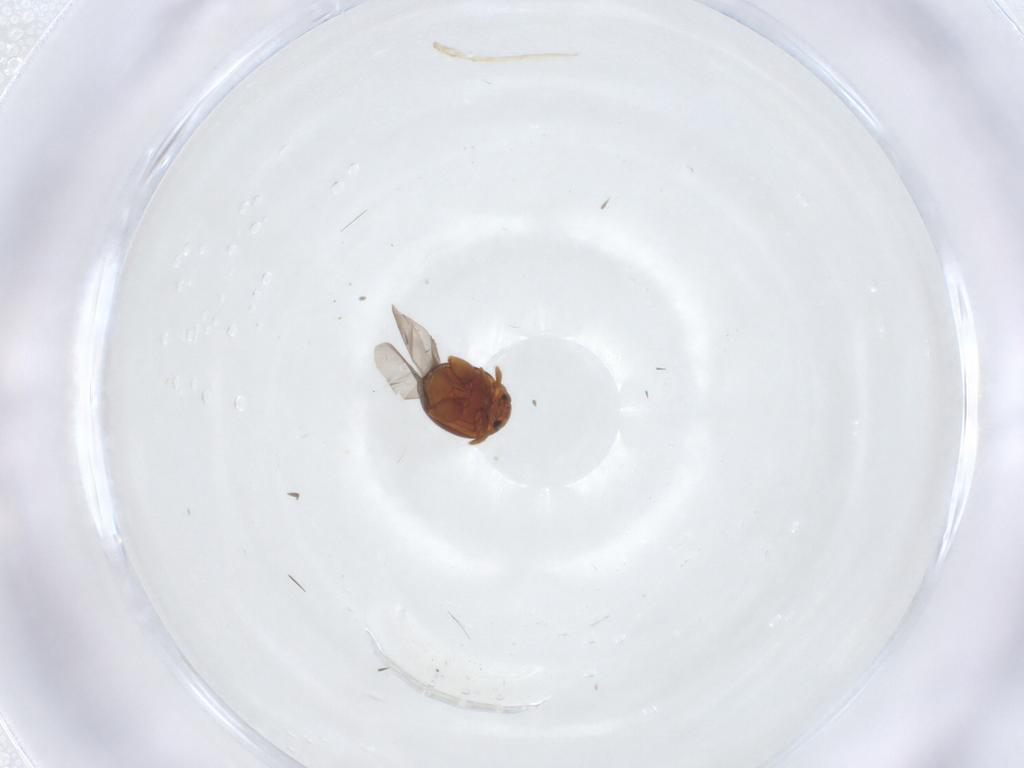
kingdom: Animalia
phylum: Arthropoda
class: Insecta
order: Coleoptera
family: Chrysomelidae
